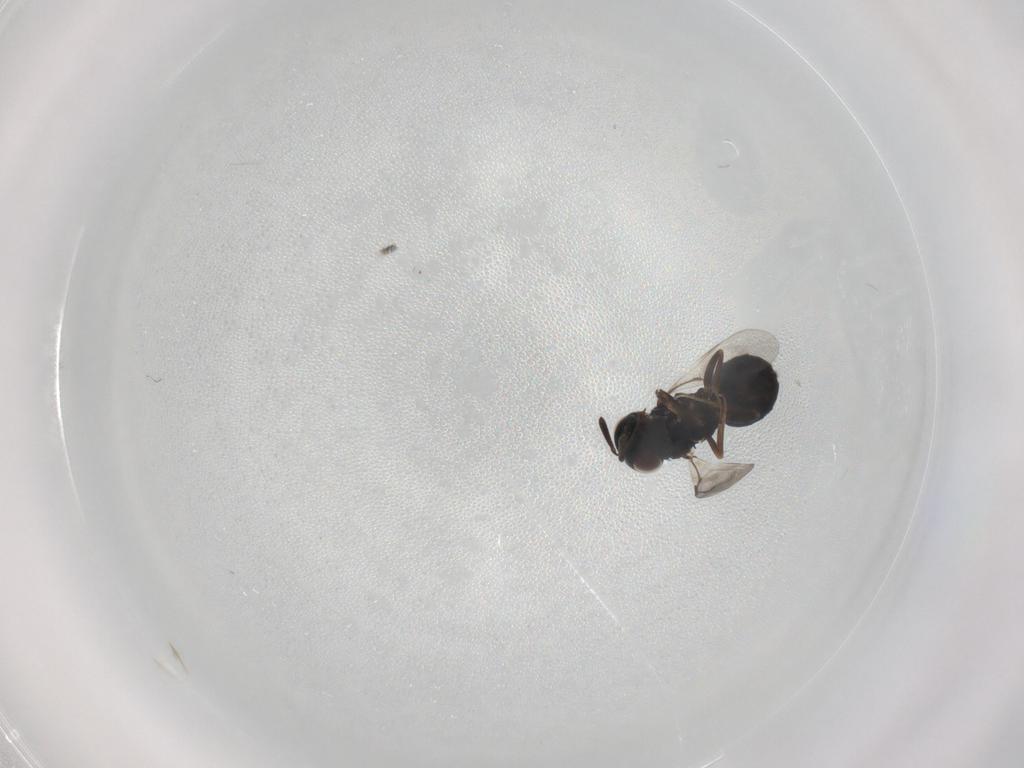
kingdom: Animalia
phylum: Arthropoda
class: Insecta
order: Hymenoptera
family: Pteromalidae
